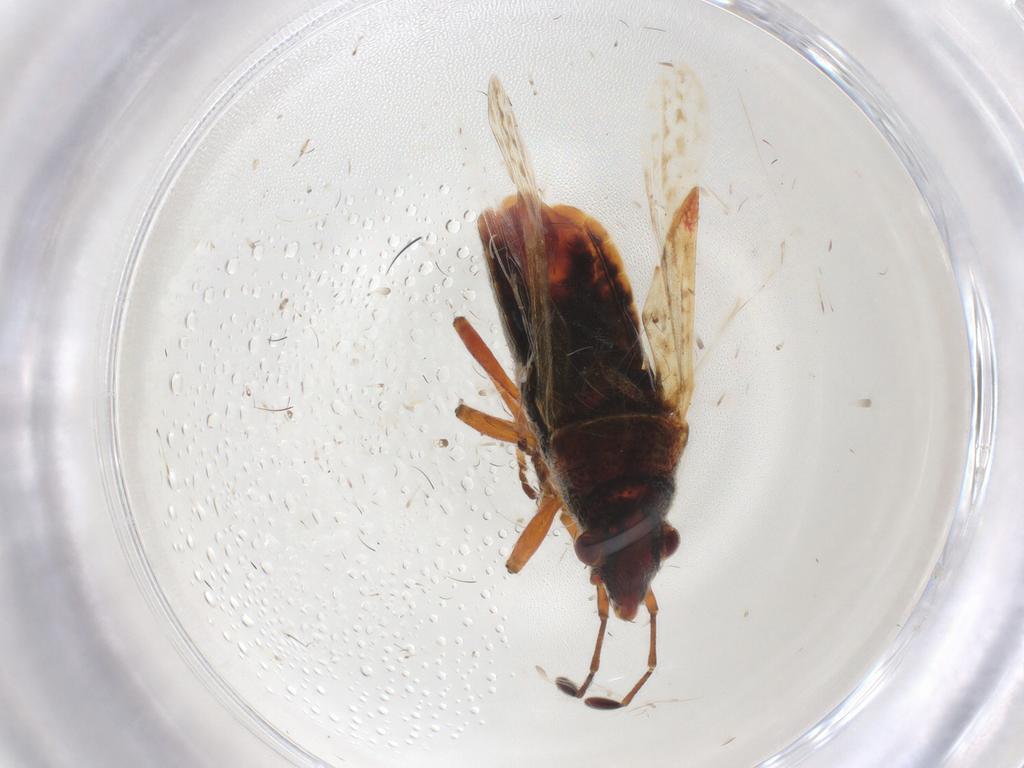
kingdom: Animalia
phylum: Arthropoda
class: Insecta
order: Hemiptera
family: Lygaeidae
